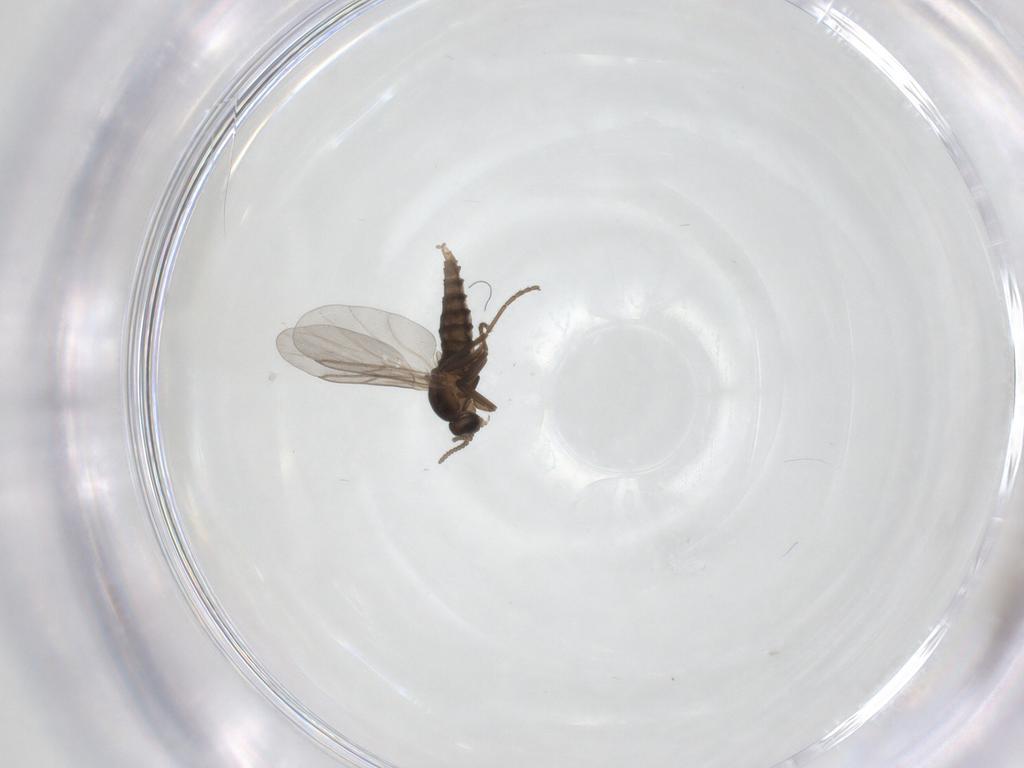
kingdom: Animalia
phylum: Arthropoda
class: Insecta
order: Diptera
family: Cecidomyiidae
